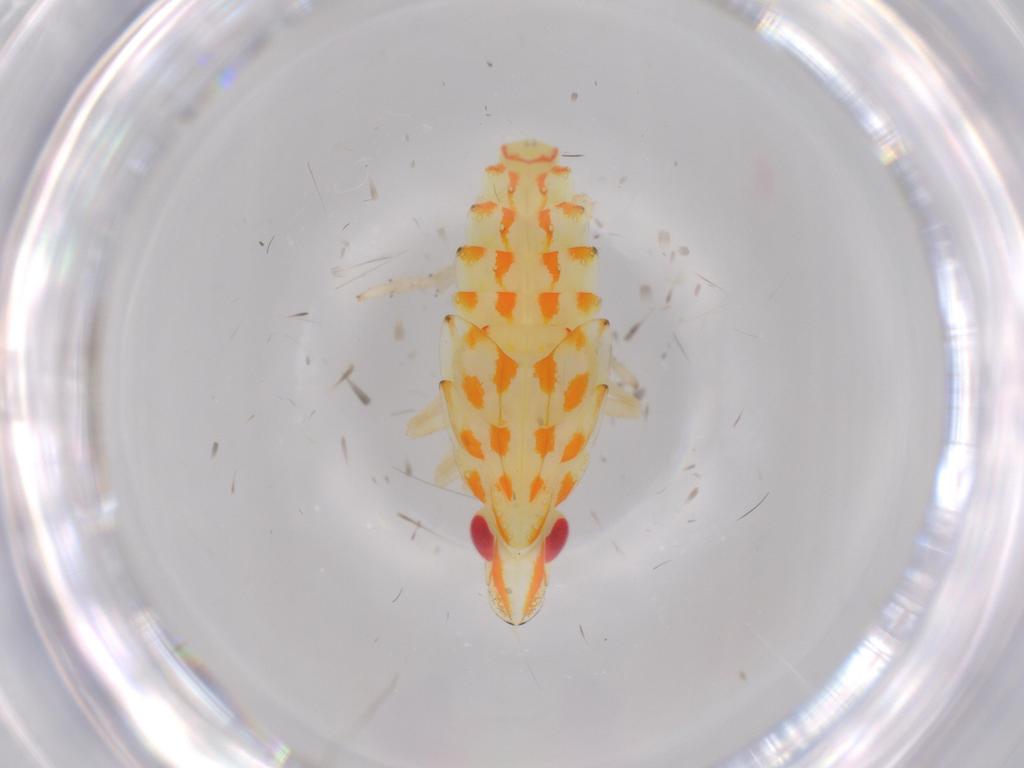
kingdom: Animalia
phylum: Arthropoda
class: Insecta
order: Hemiptera
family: Tropiduchidae
